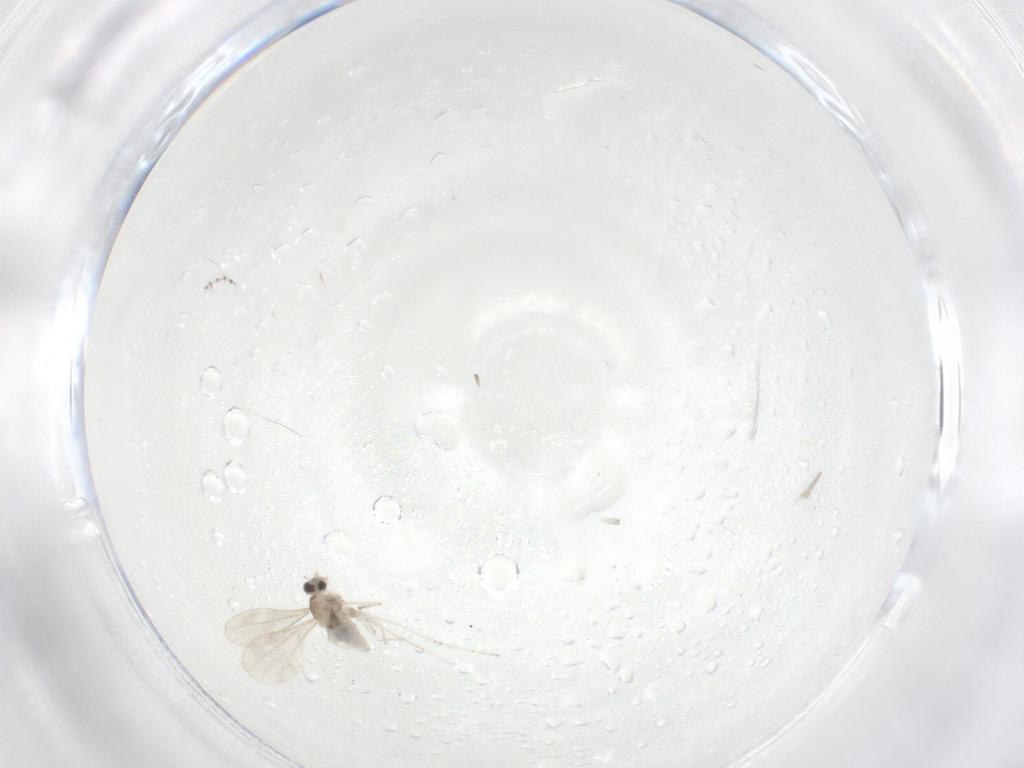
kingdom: Animalia
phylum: Arthropoda
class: Insecta
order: Diptera
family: Cecidomyiidae
